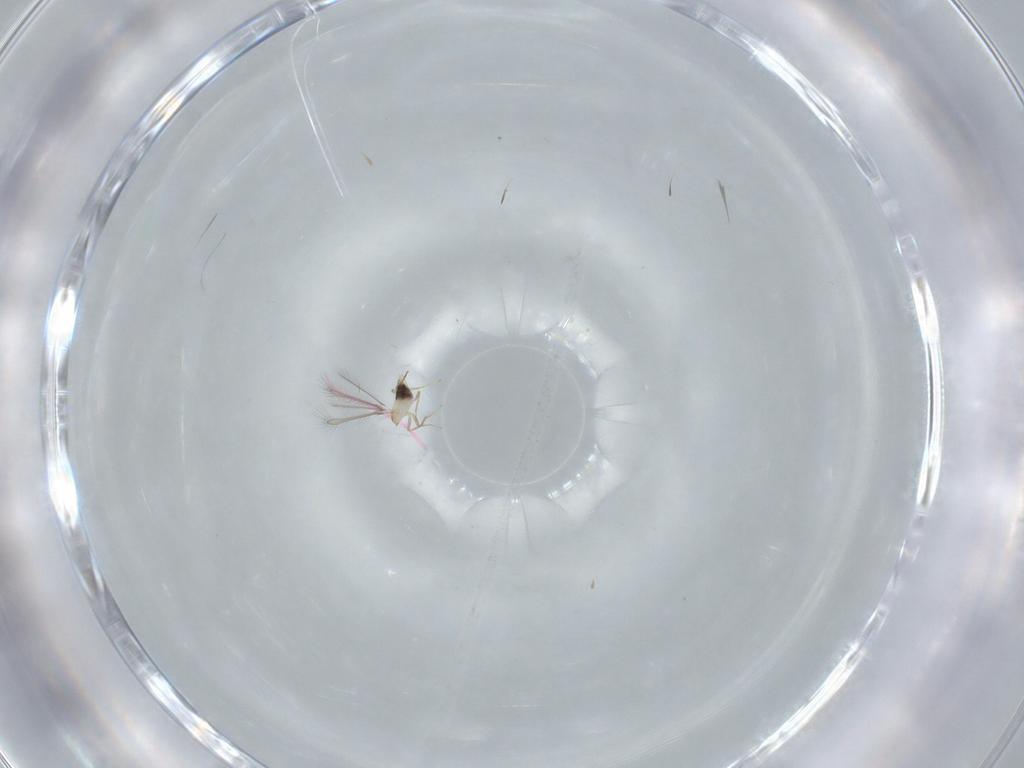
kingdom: Animalia
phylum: Arthropoda
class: Insecta
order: Hymenoptera
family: Mymaridae
